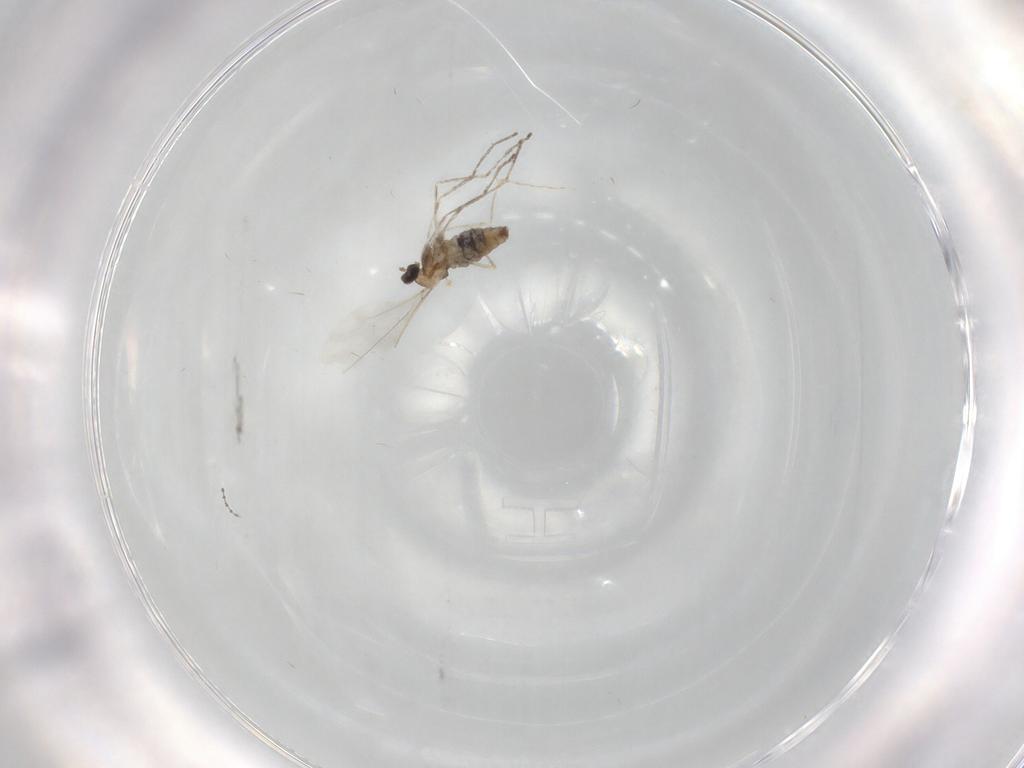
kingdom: Animalia
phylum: Arthropoda
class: Insecta
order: Diptera
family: Cecidomyiidae
